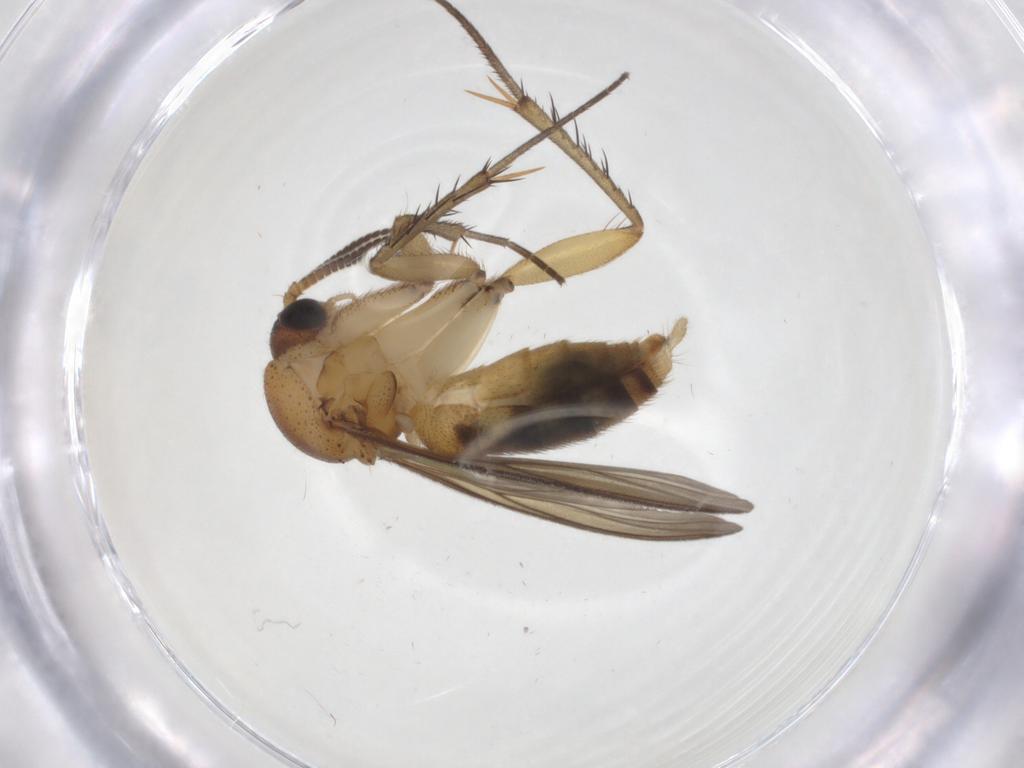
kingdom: Animalia
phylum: Arthropoda
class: Insecta
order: Diptera
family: Mycetophilidae
